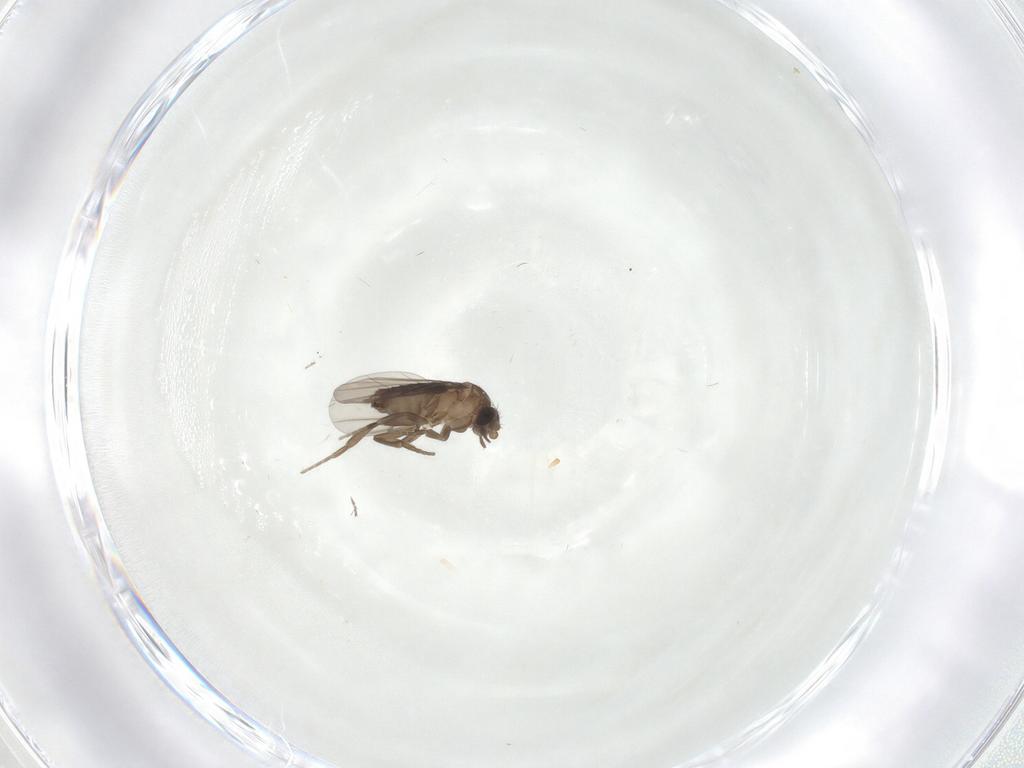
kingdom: Animalia
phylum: Arthropoda
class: Insecta
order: Diptera
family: Phoridae
